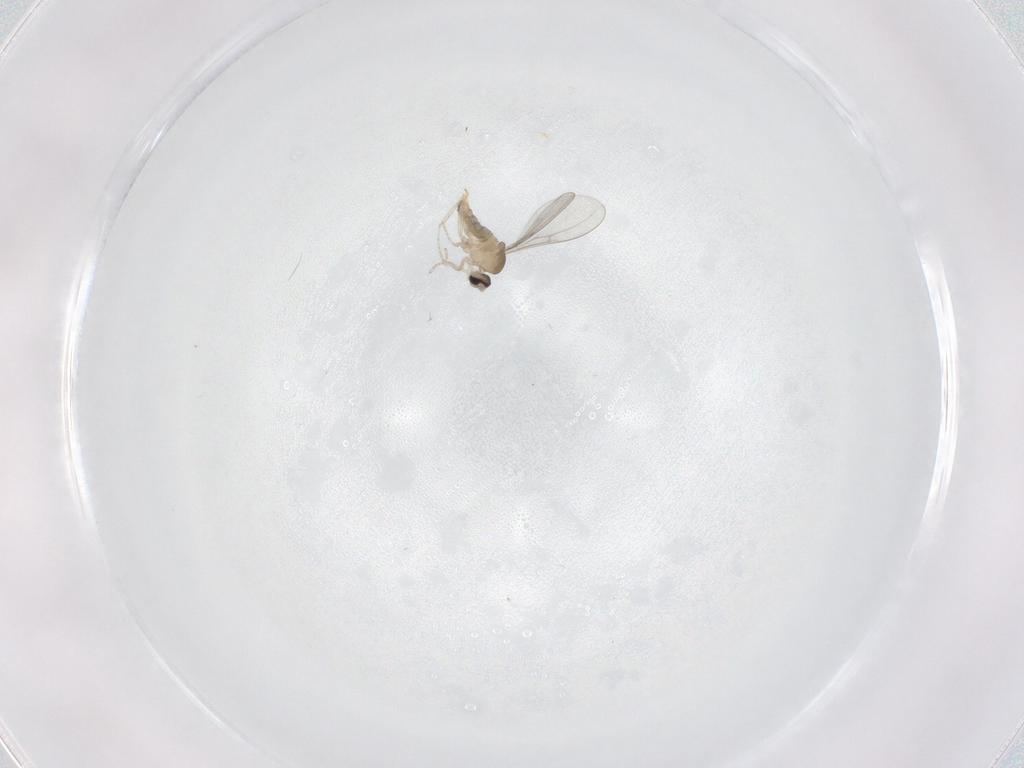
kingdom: Animalia
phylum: Arthropoda
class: Insecta
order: Diptera
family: Cecidomyiidae
